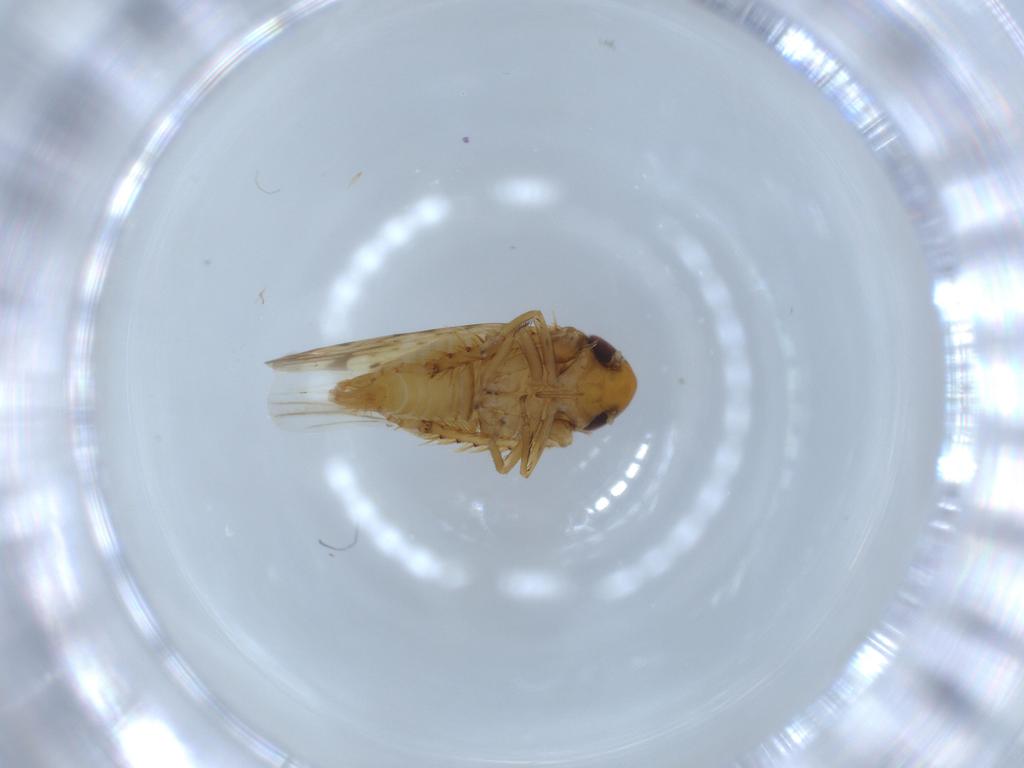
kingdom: Animalia
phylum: Arthropoda
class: Insecta
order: Hemiptera
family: Cicadellidae
